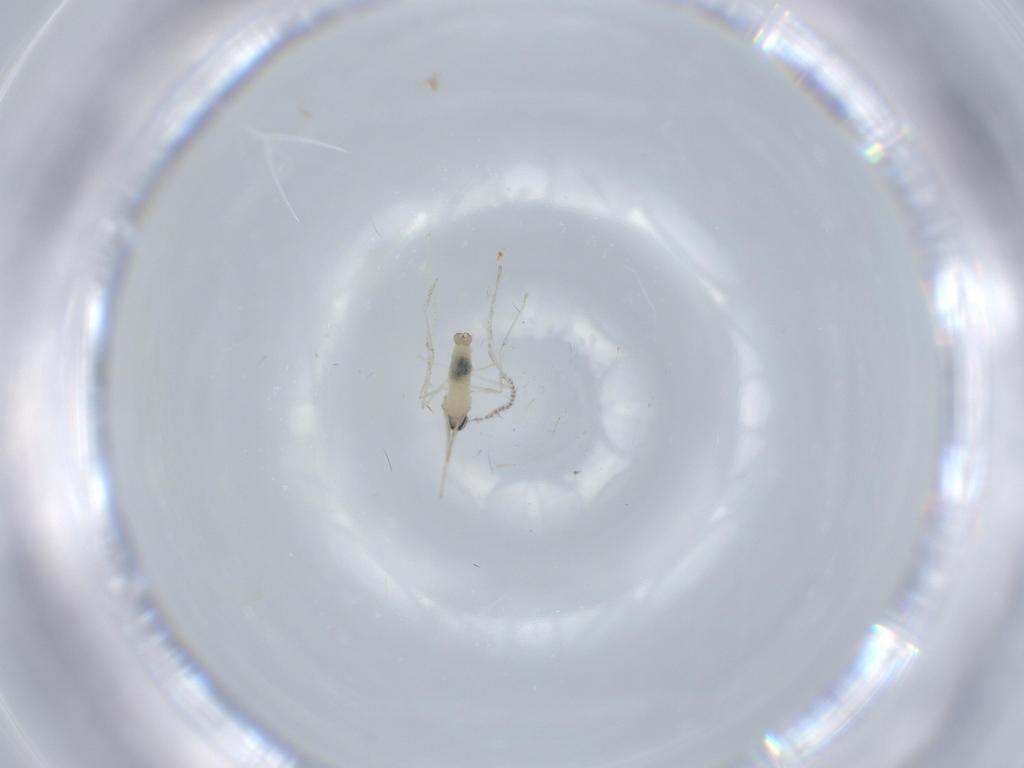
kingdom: Animalia
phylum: Arthropoda
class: Insecta
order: Diptera
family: Cecidomyiidae
